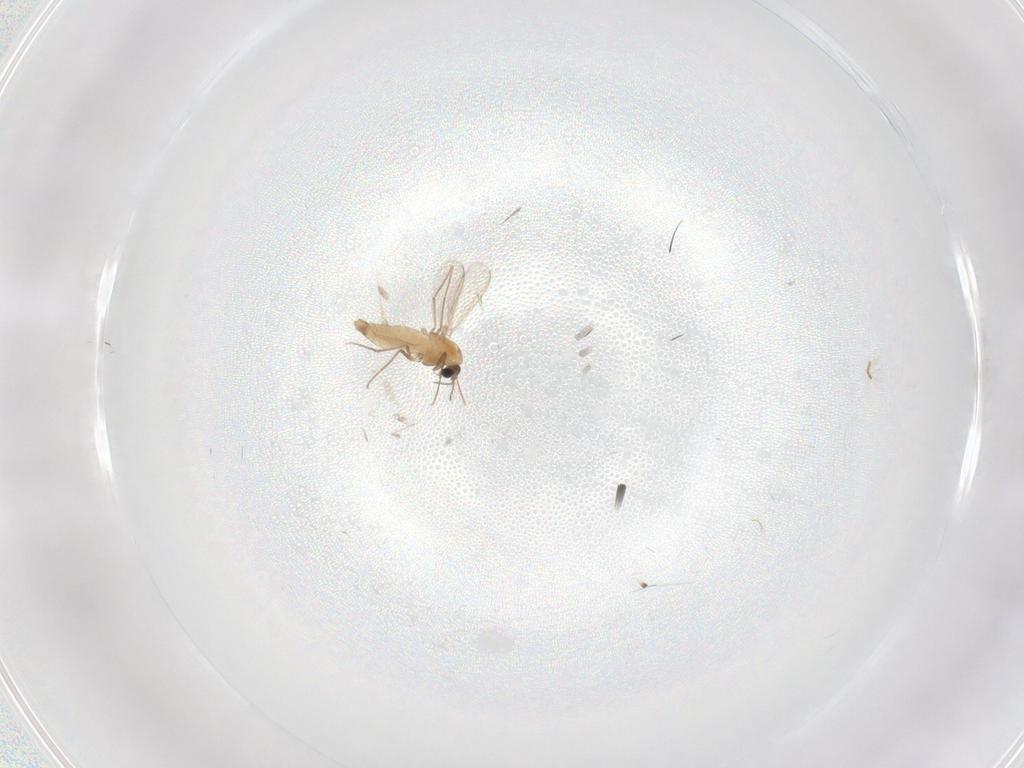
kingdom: Animalia
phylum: Arthropoda
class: Insecta
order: Diptera
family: Chironomidae
